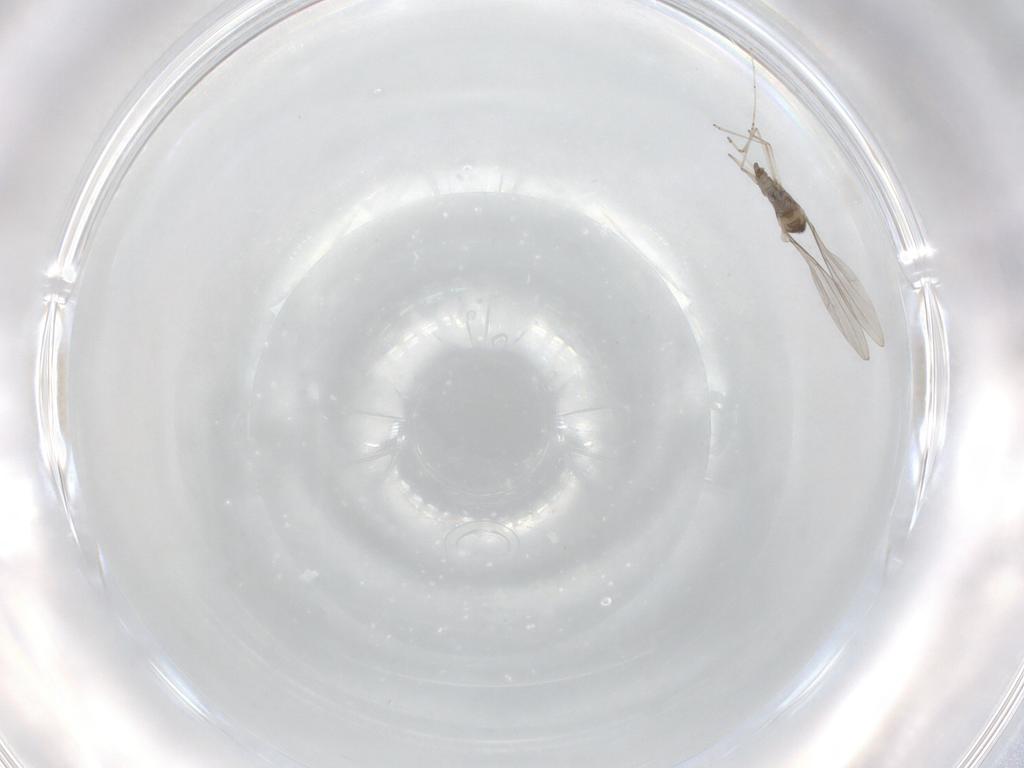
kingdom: Animalia
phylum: Arthropoda
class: Insecta
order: Diptera
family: Cecidomyiidae
